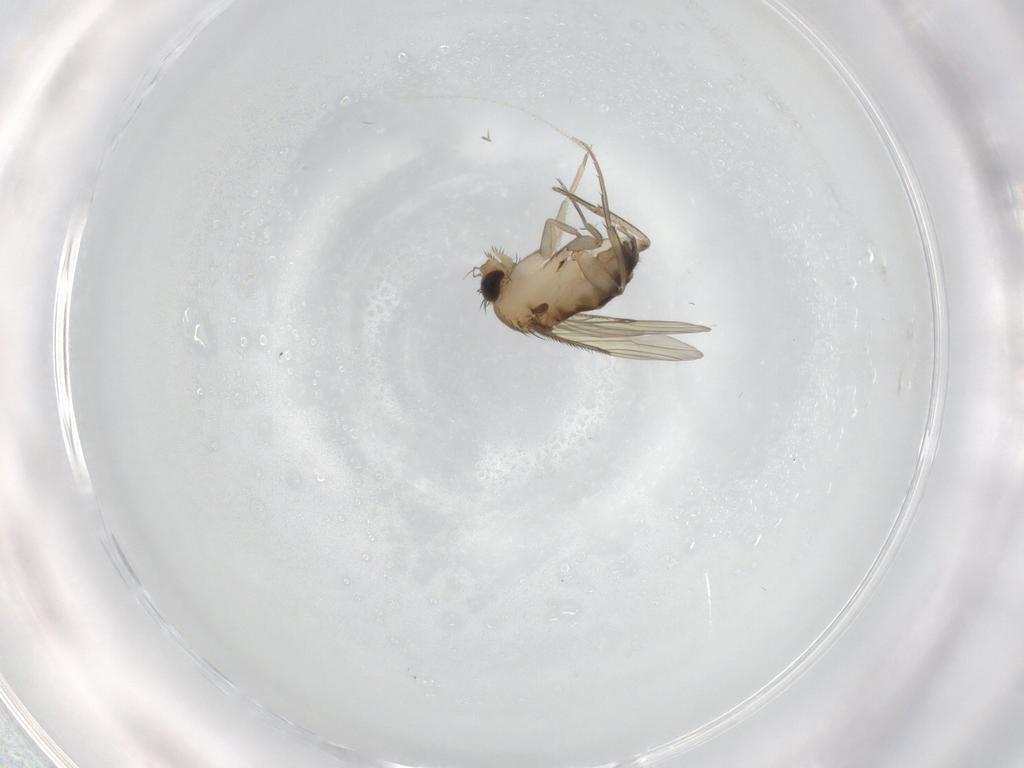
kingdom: Animalia
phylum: Arthropoda
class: Insecta
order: Diptera
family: Phoridae
